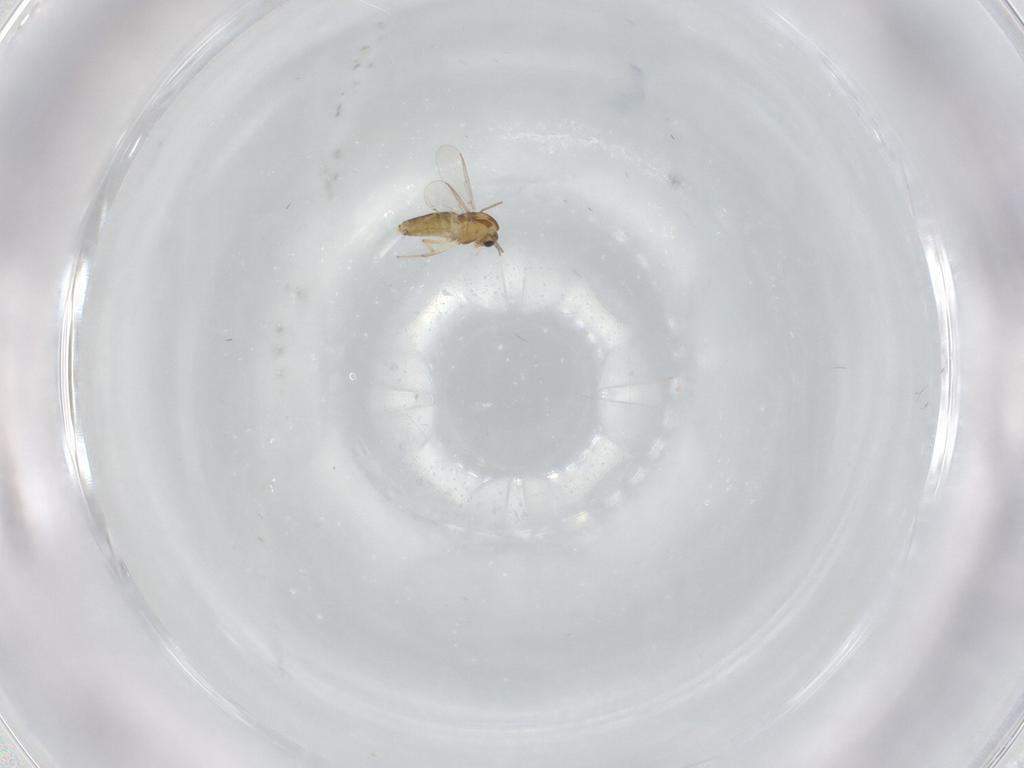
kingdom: Animalia
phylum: Arthropoda
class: Insecta
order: Diptera
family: Chironomidae
